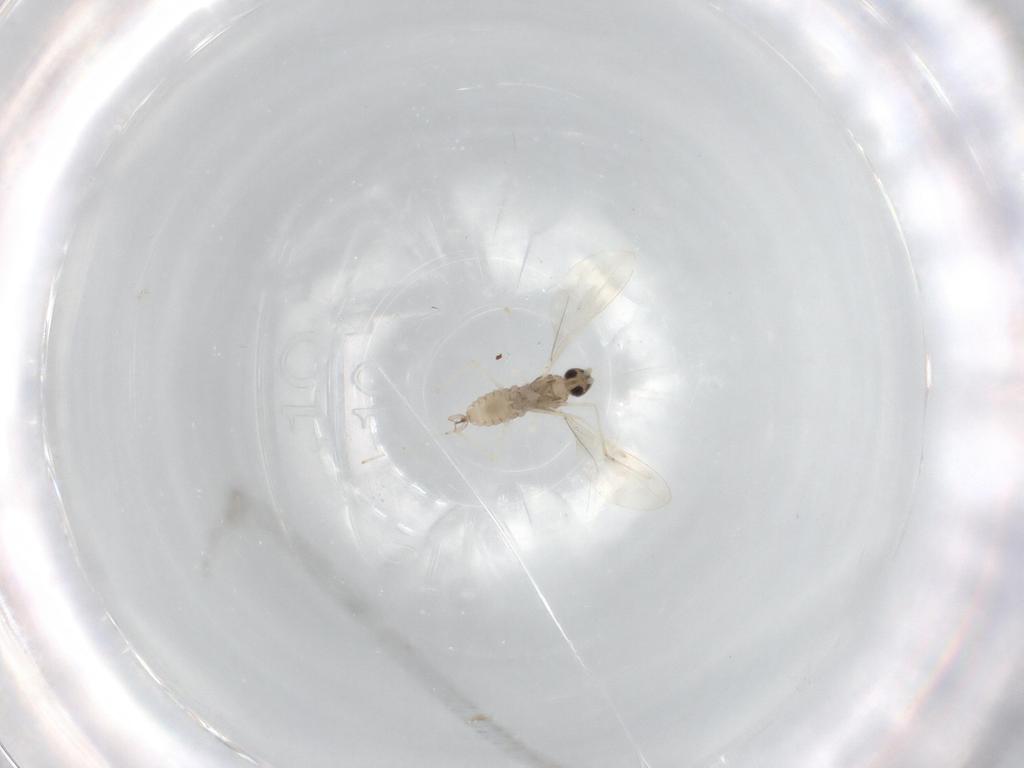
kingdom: Animalia
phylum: Arthropoda
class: Insecta
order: Diptera
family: Cecidomyiidae
